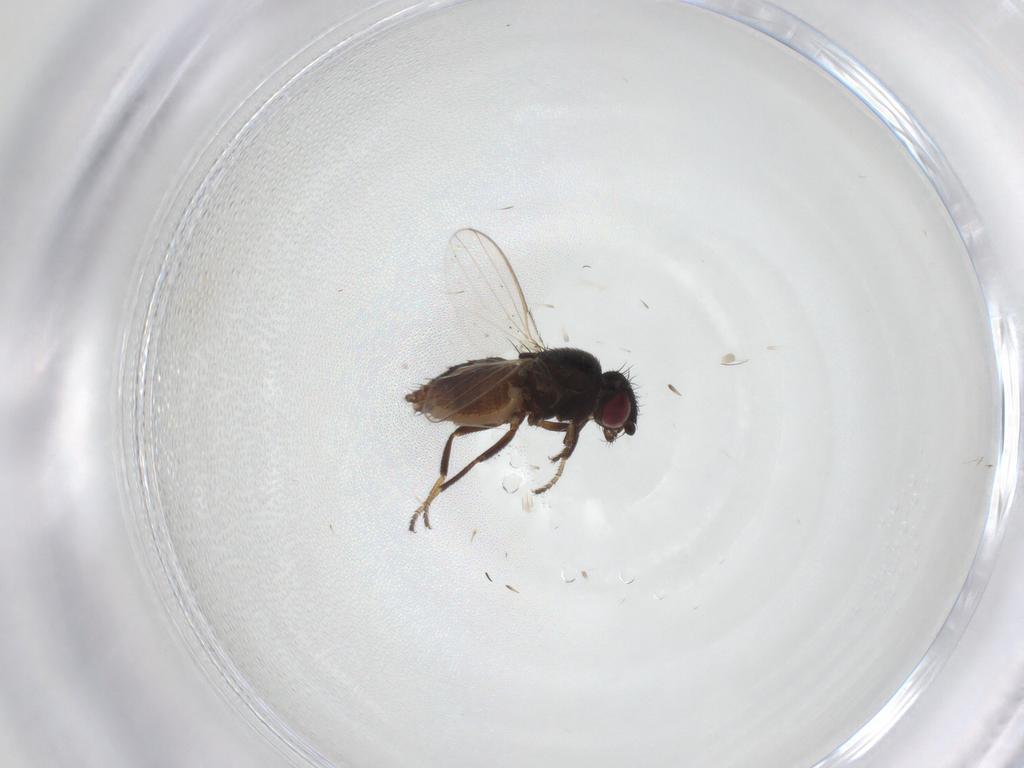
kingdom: Animalia
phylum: Arthropoda
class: Insecta
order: Diptera
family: Milichiidae
